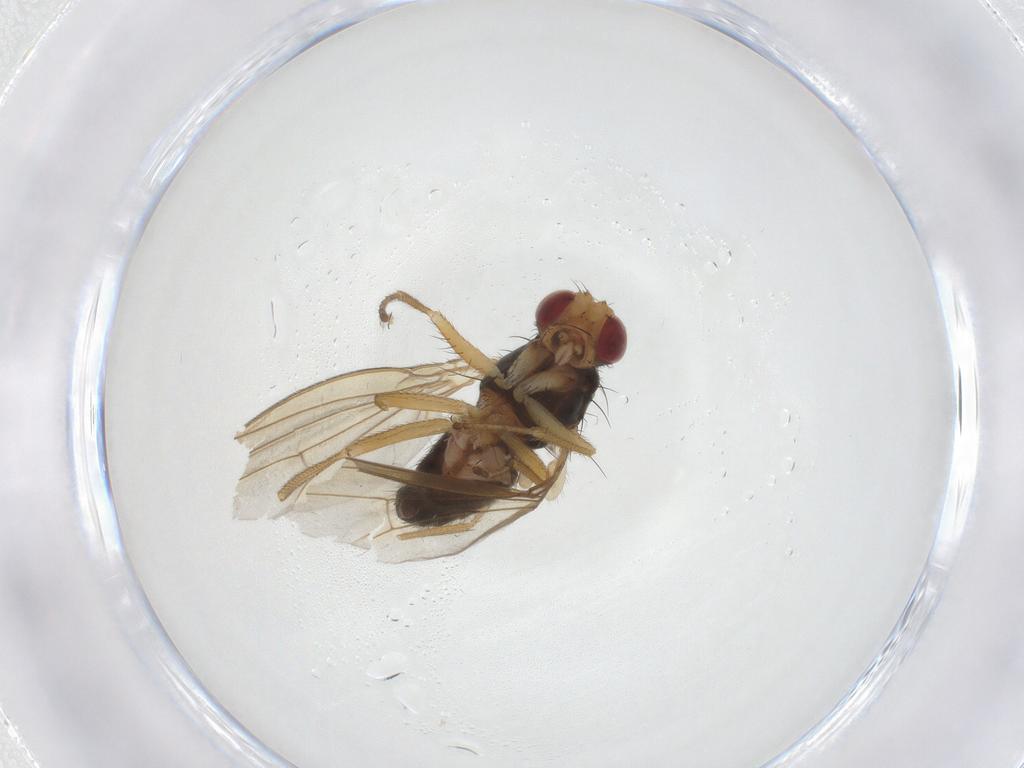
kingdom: Animalia
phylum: Arthropoda
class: Insecta
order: Diptera
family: Drosophilidae
